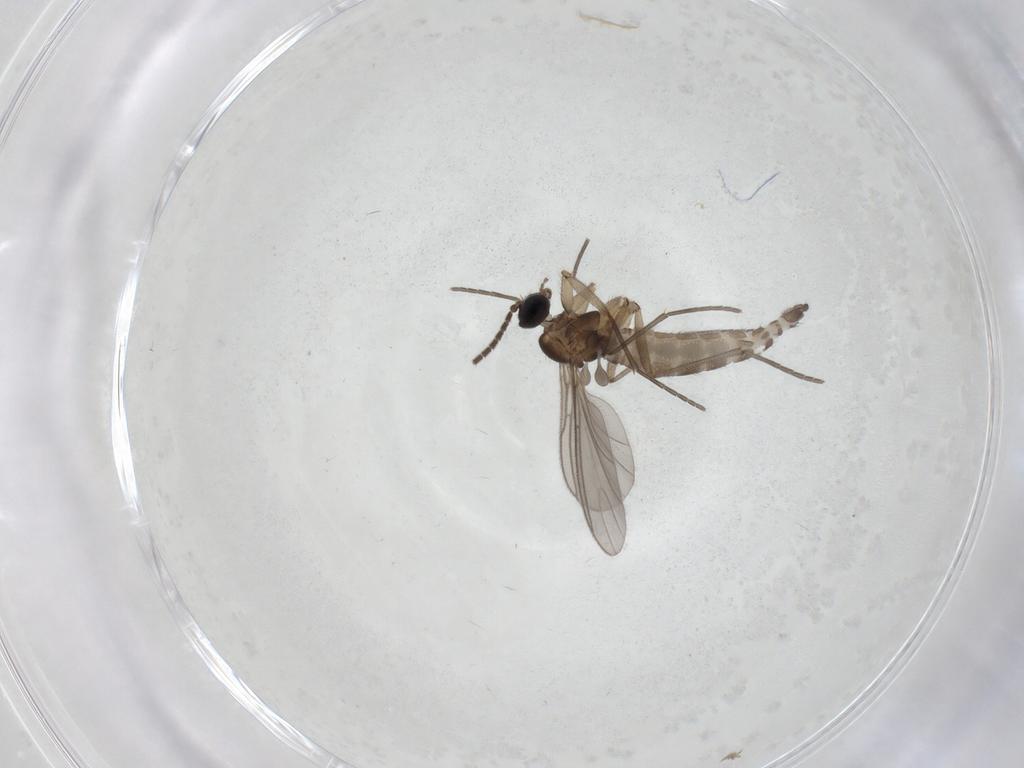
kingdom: Animalia
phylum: Arthropoda
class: Insecta
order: Diptera
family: Sciaridae
